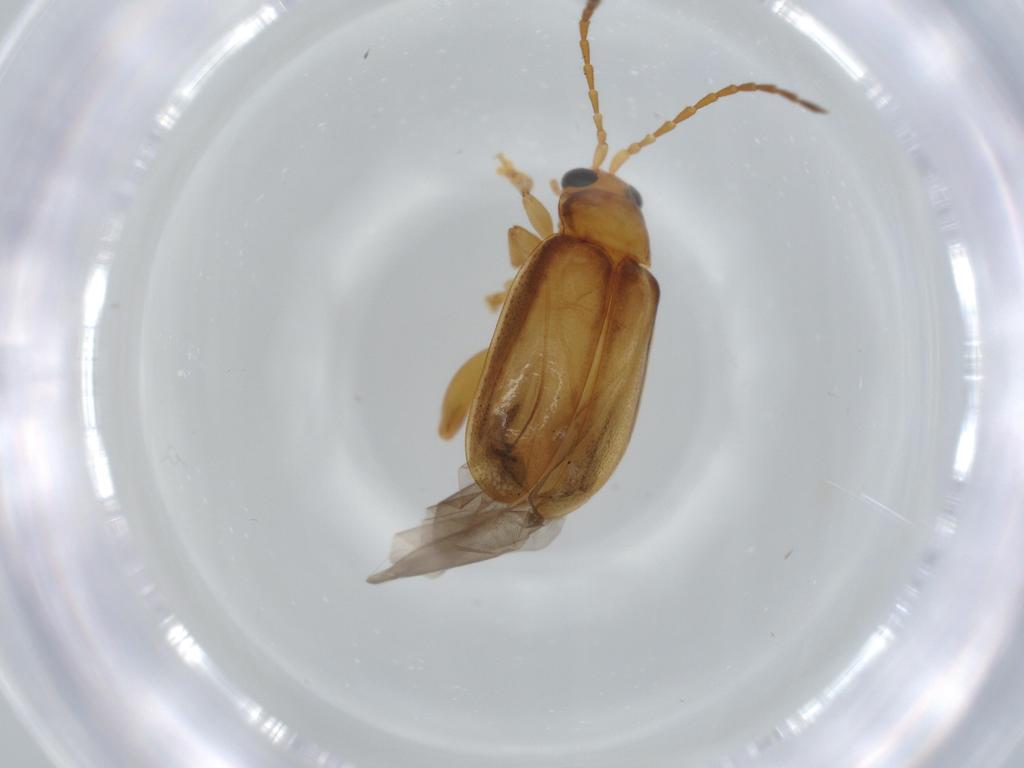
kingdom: Animalia
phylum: Arthropoda
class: Insecta
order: Coleoptera
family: Chrysomelidae
